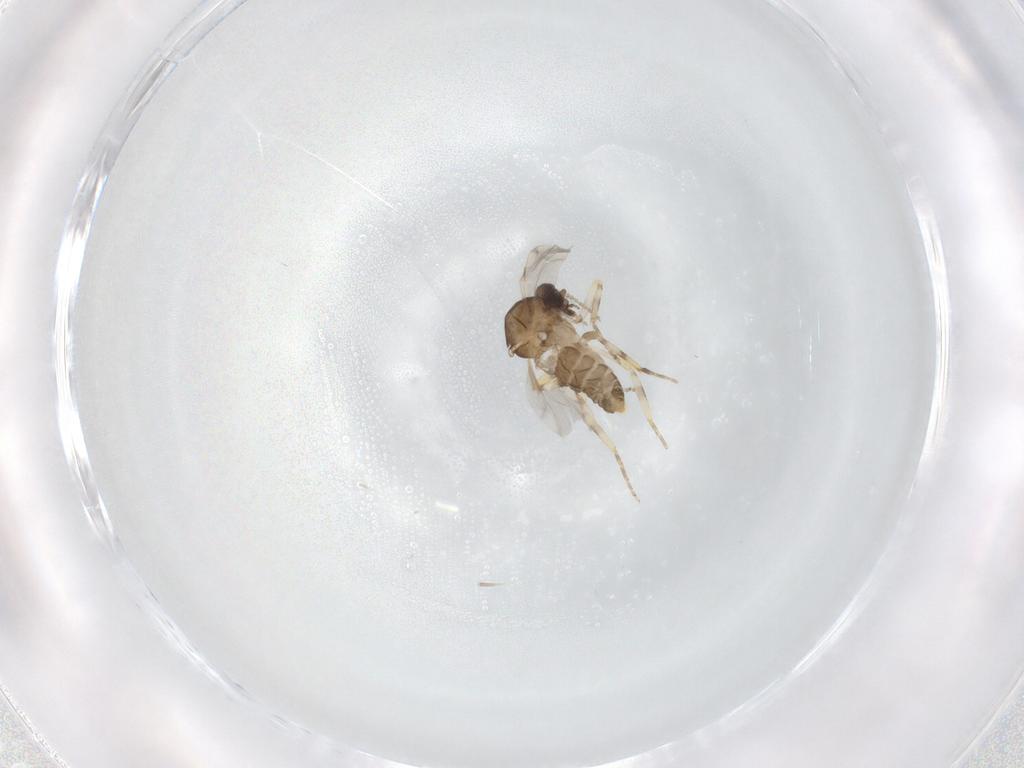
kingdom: Animalia
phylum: Arthropoda
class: Insecta
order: Diptera
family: Ceratopogonidae
